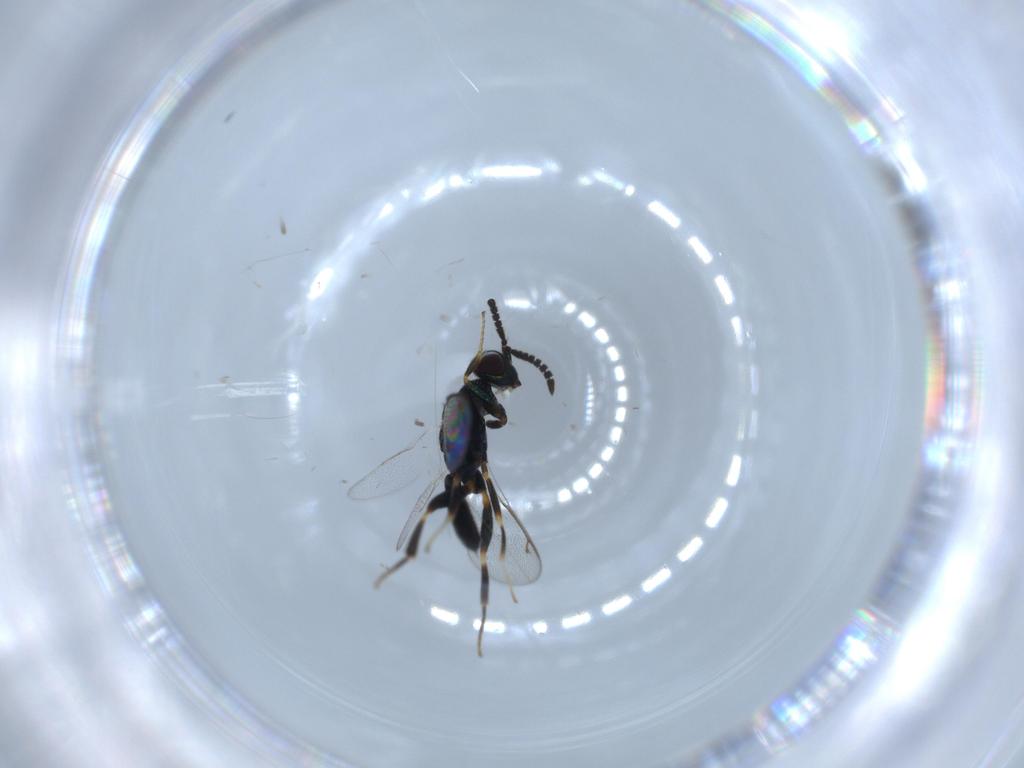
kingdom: Animalia
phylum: Arthropoda
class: Insecta
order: Hymenoptera
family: Cleonyminae
